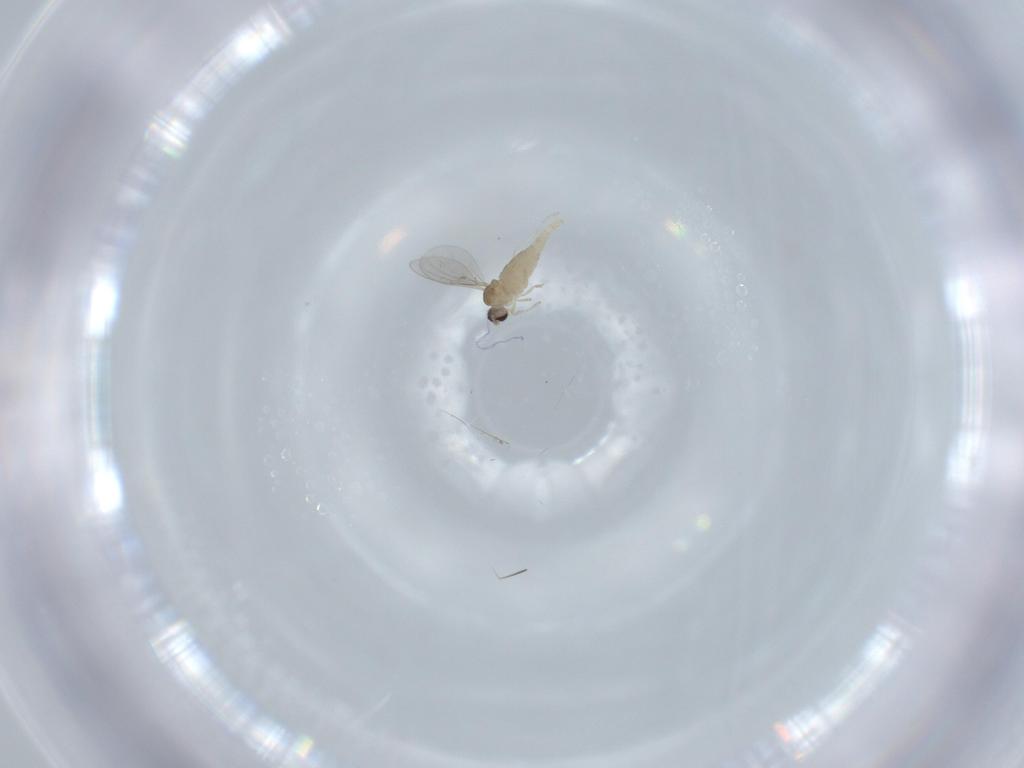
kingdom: Animalia
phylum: Arthropoda
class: Insecta
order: Diptera
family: Cecidomyiidae
